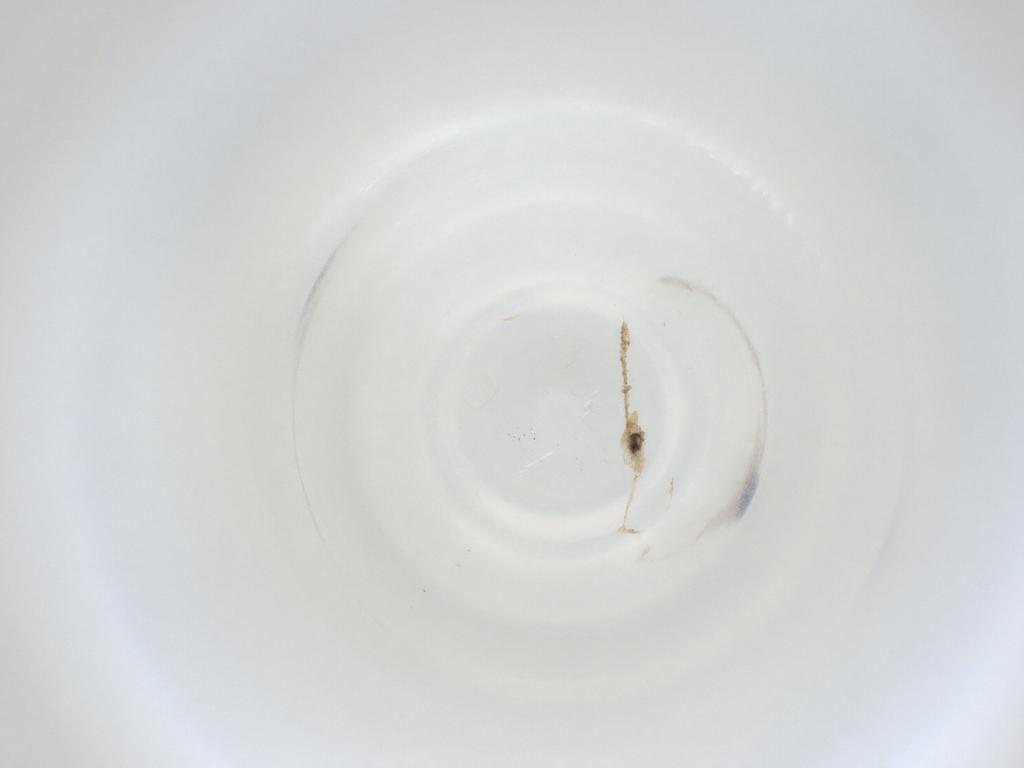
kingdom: Animalia
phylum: Arthropoda
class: Insecta
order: Diptera
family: Cecidomyiidae
